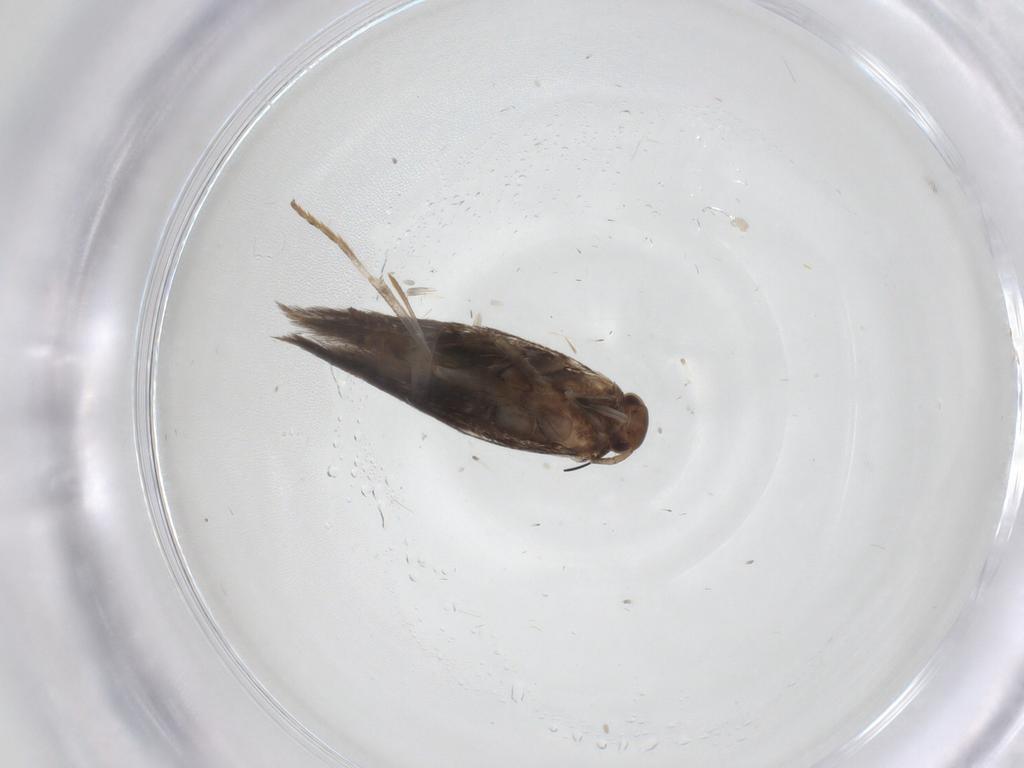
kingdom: Animalia
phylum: Arthropoda
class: Insecta
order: Lepidoptera
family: Elachistidae
